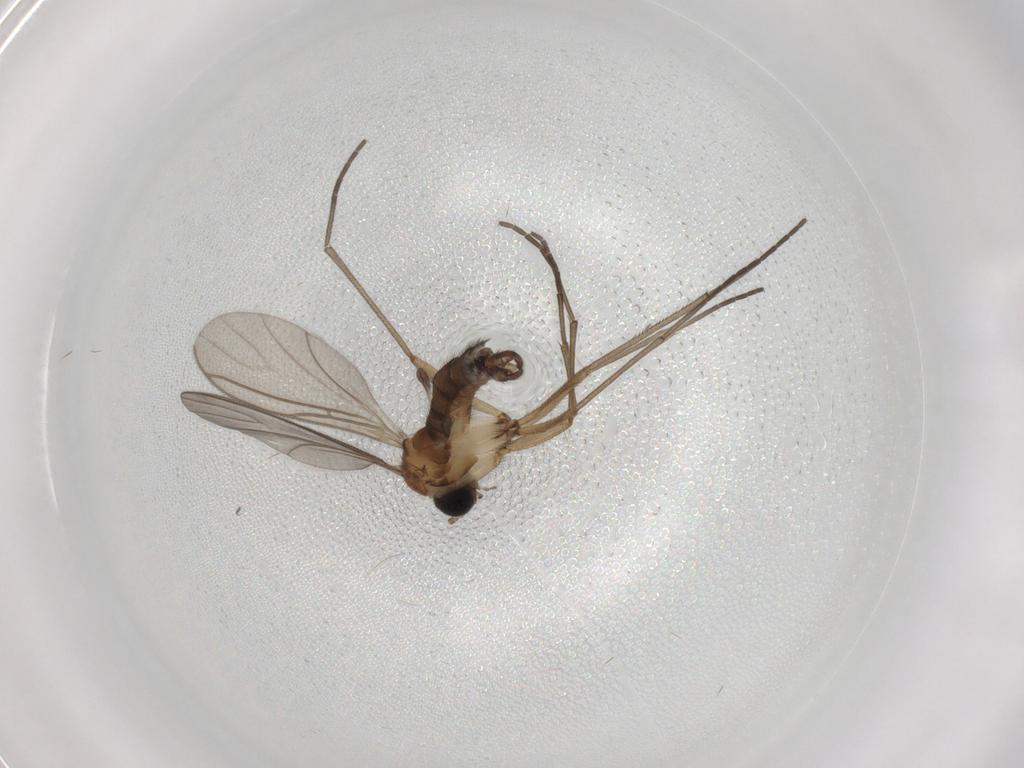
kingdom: Animalia
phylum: Arthropoda
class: Insecta
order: Diptera
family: Sciaridae
